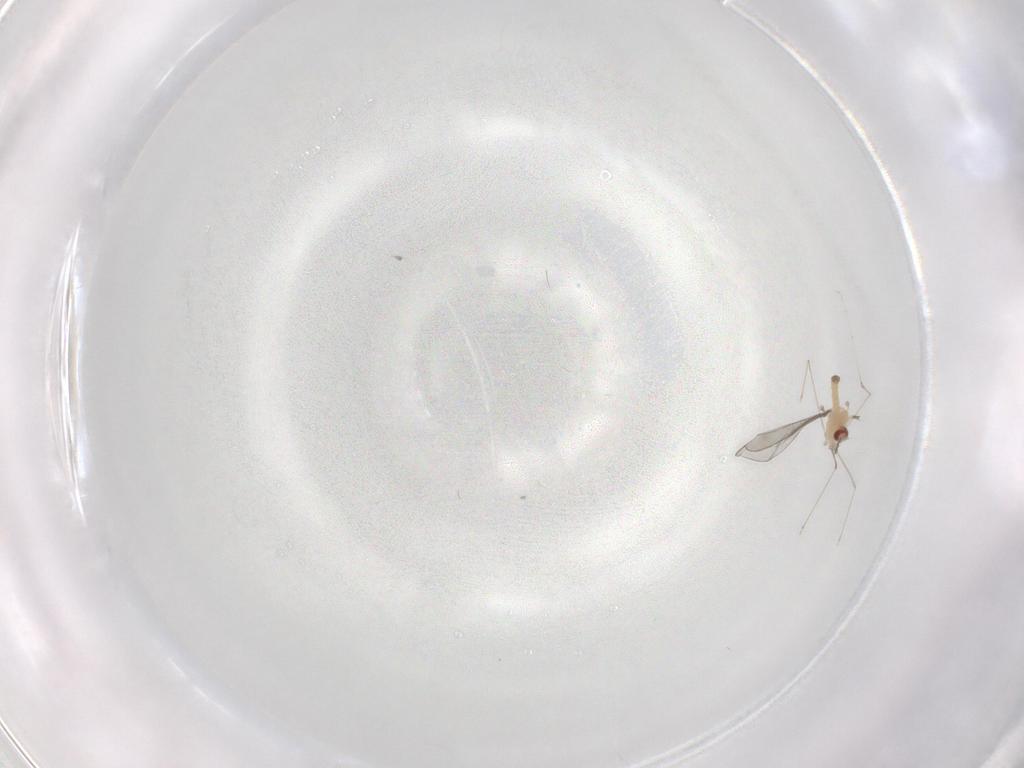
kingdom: Animalia
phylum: Arthropoda
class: Insecta
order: Diptera
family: Cecidomyiidae
